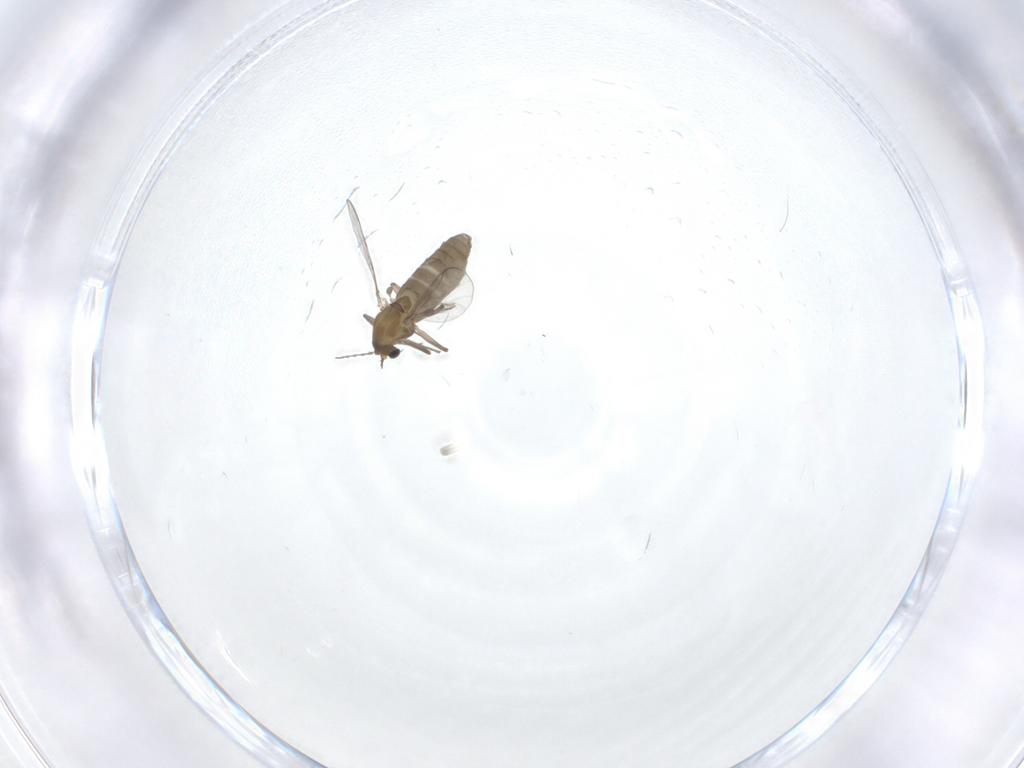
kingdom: Animalia
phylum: Arthropoda
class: Insecta
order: Diptera
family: Chironomidae
